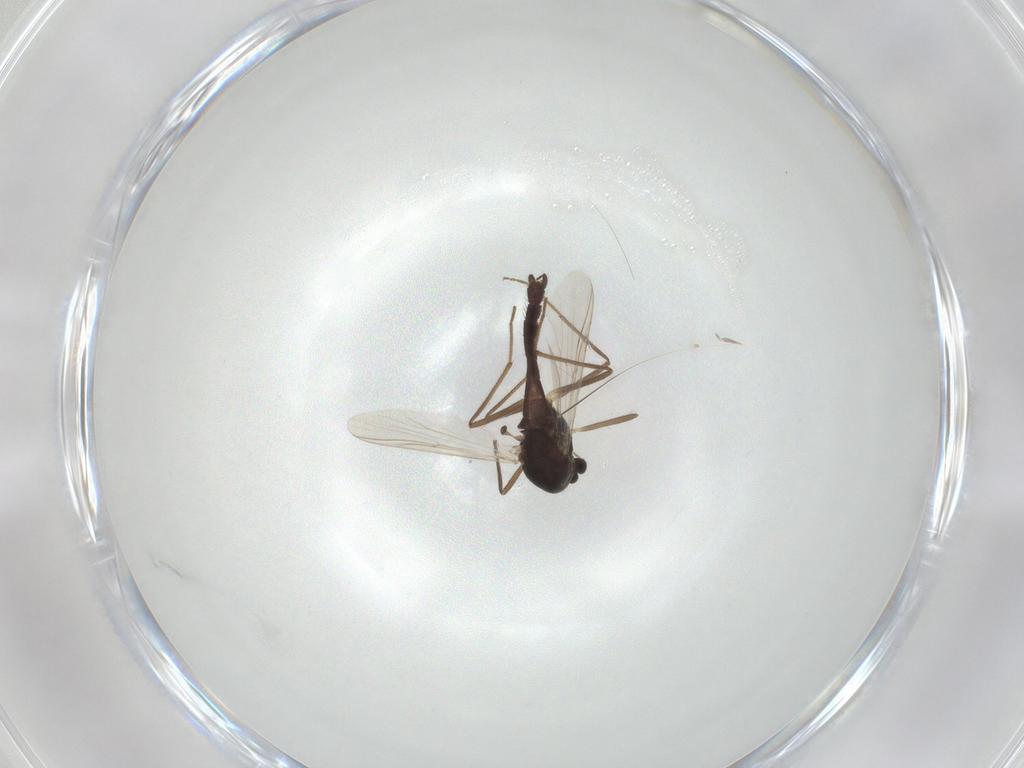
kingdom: Animalia
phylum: Arthropoda
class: Insecta
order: Diptera
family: Chironomidae
